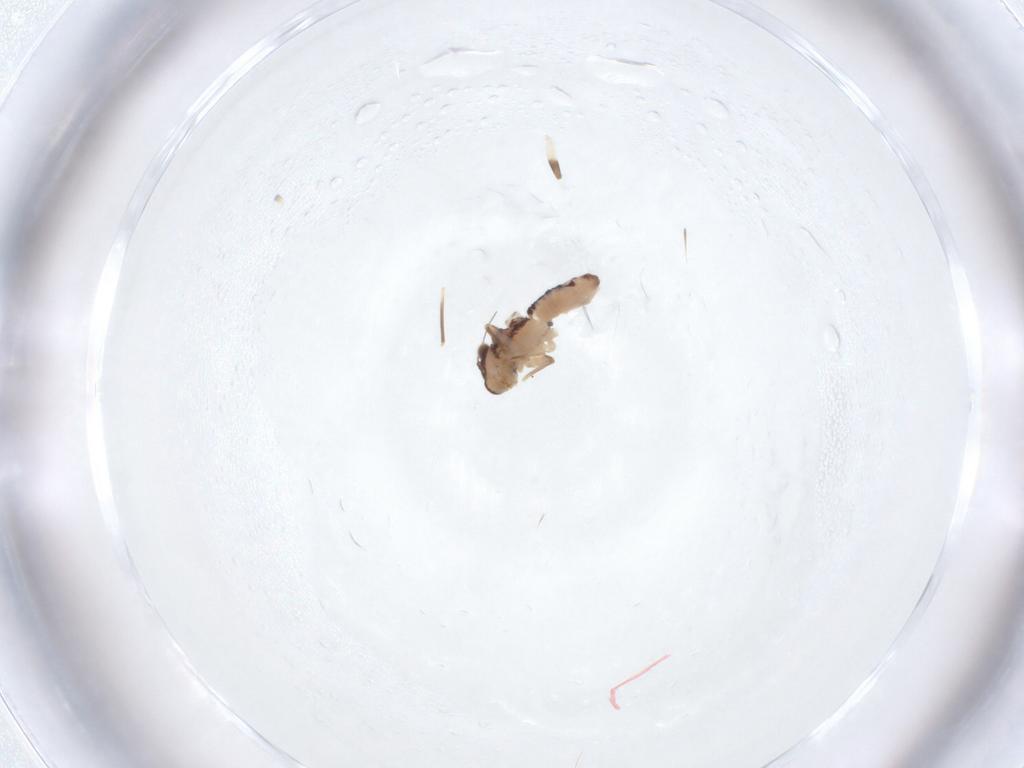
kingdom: Animalia
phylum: Arthropoda
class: Insecta
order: Psocodea
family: Lepidopsocidae
